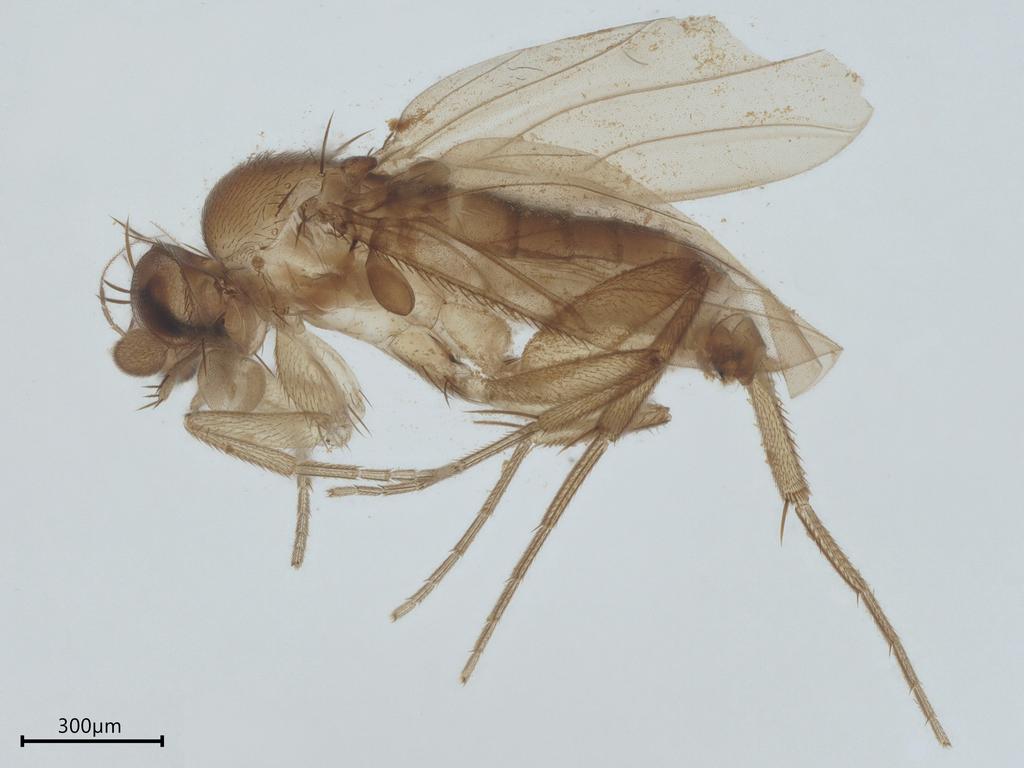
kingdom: Animalia
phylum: Arthropoda
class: Insecta
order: Diptera
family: Phoridae
